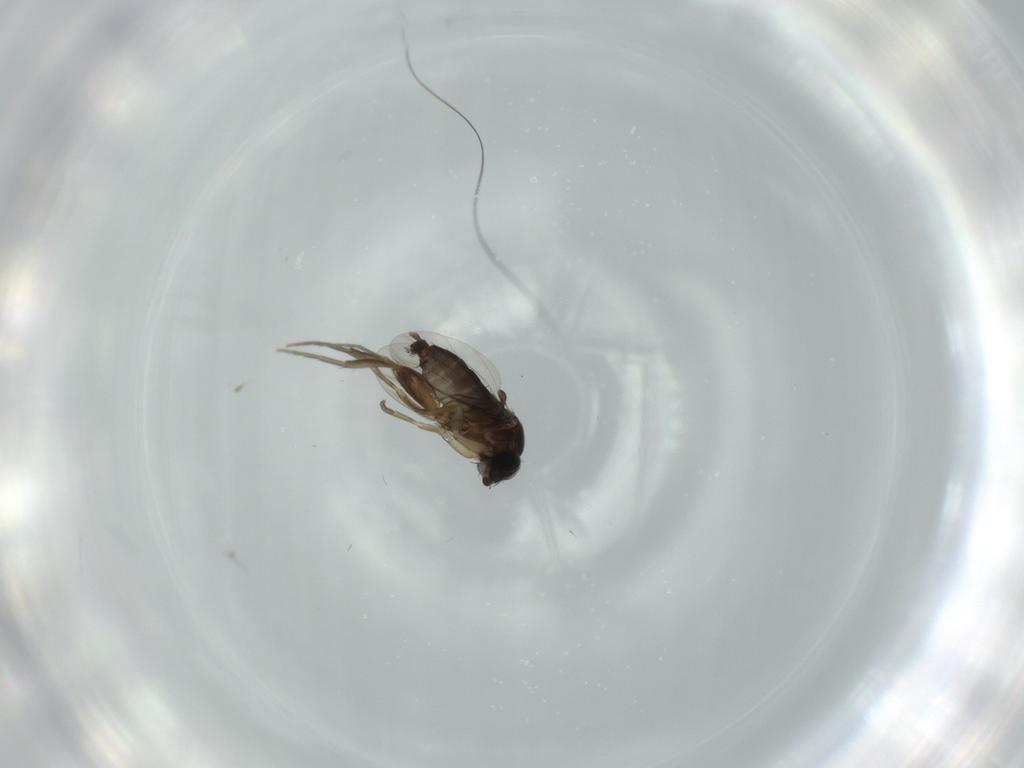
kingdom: Animalia
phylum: Arthropoda
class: Insecta
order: Diptera
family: Phoridae
